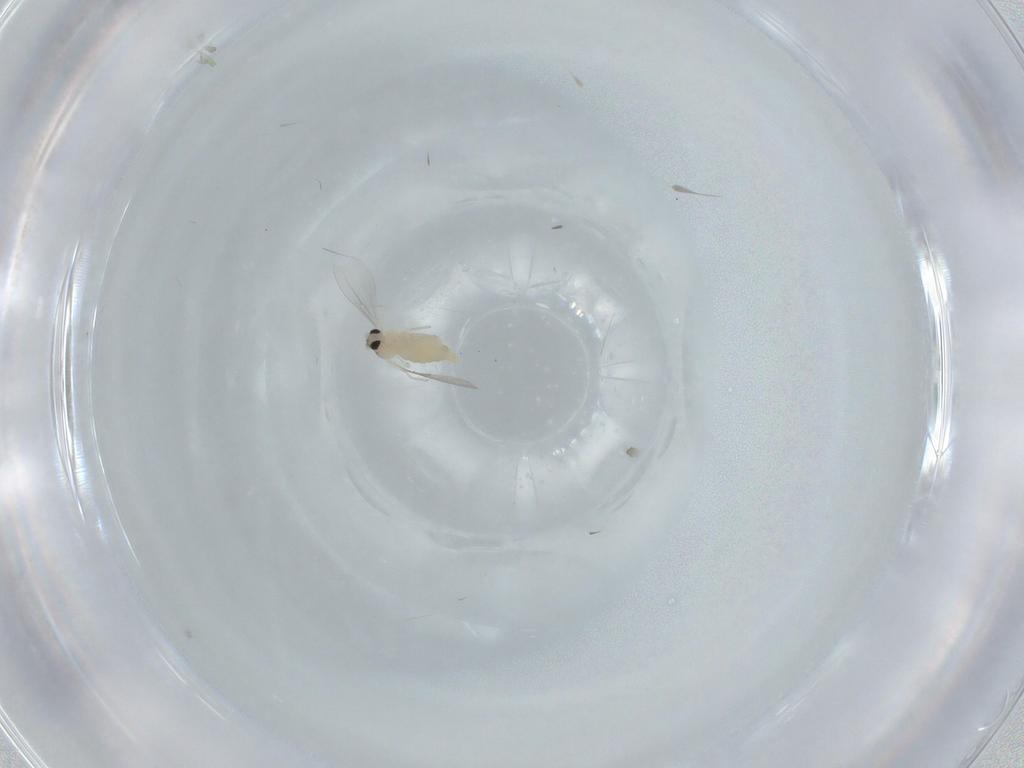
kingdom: Animalia
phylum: Arthropoda
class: Insecta
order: Diptera
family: Cecidomyiidae
